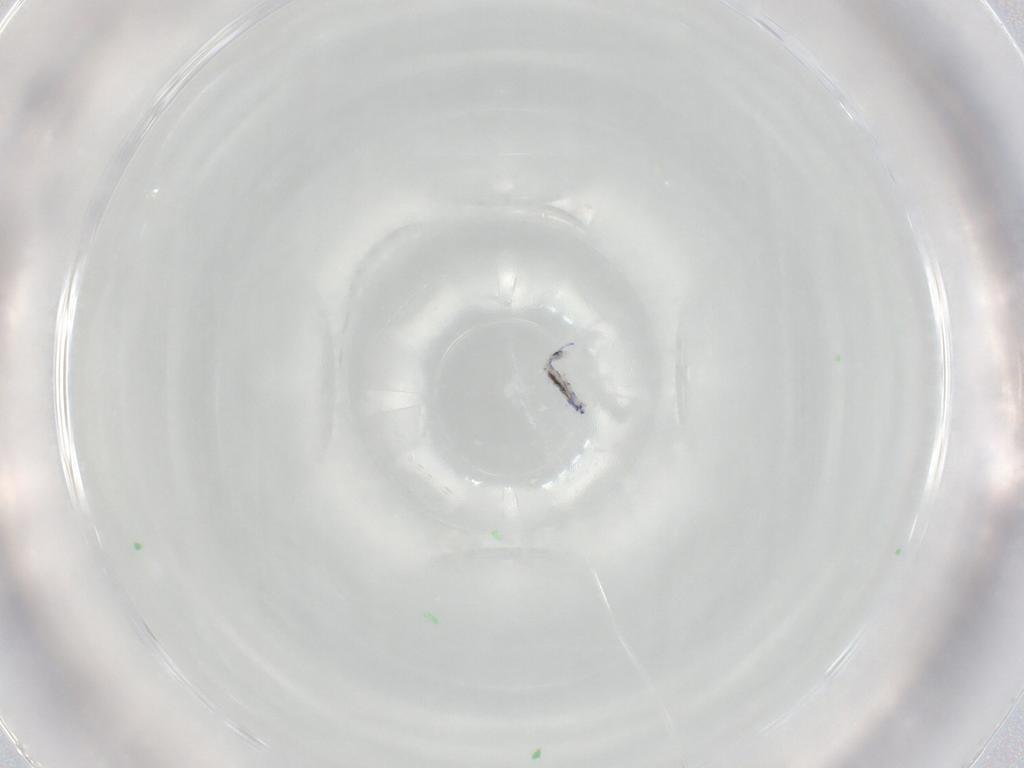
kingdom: Animalia
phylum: Arthropoda
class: Collembola
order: Entomobryomorpha
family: Entomobryidae
